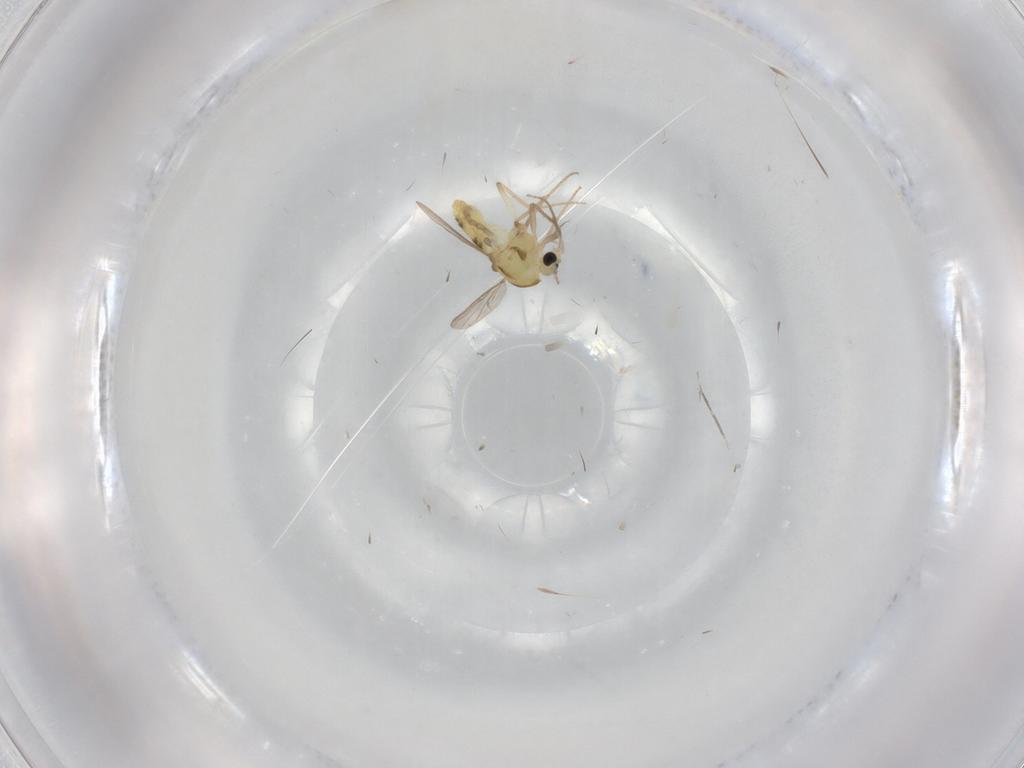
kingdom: Animalia
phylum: Arthropoda
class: Insecta
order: Diptera
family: Cecidomyiidae
